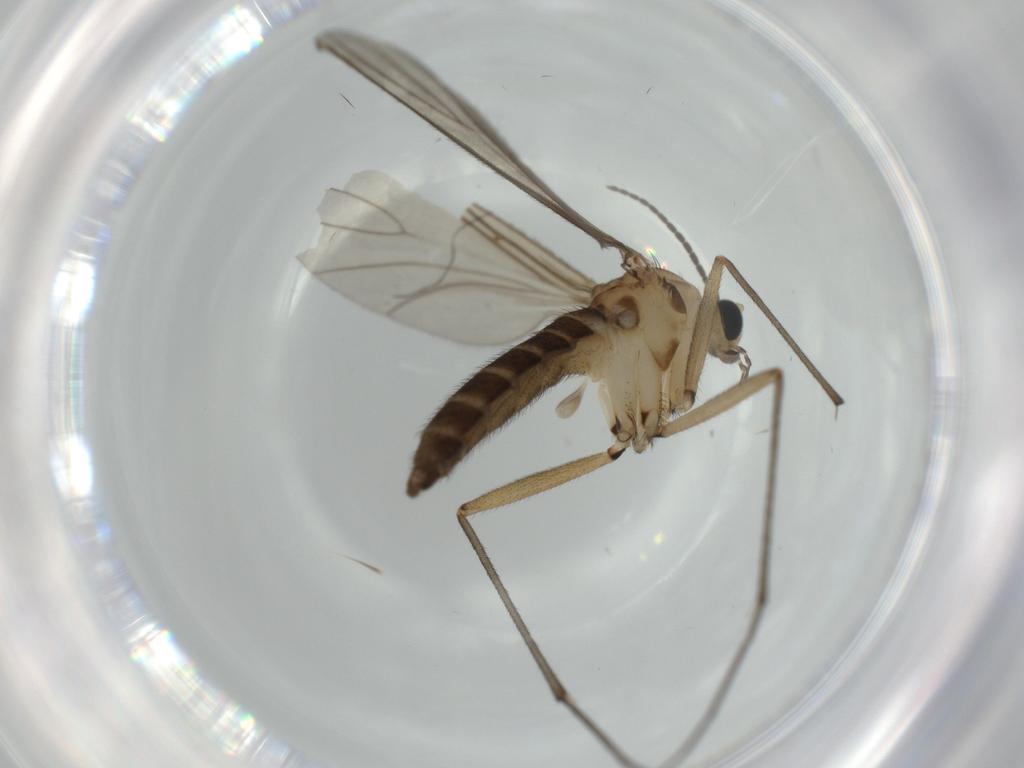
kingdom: Animalia
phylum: Arthropoda
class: Insecta
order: Diptera
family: Sciaridae
